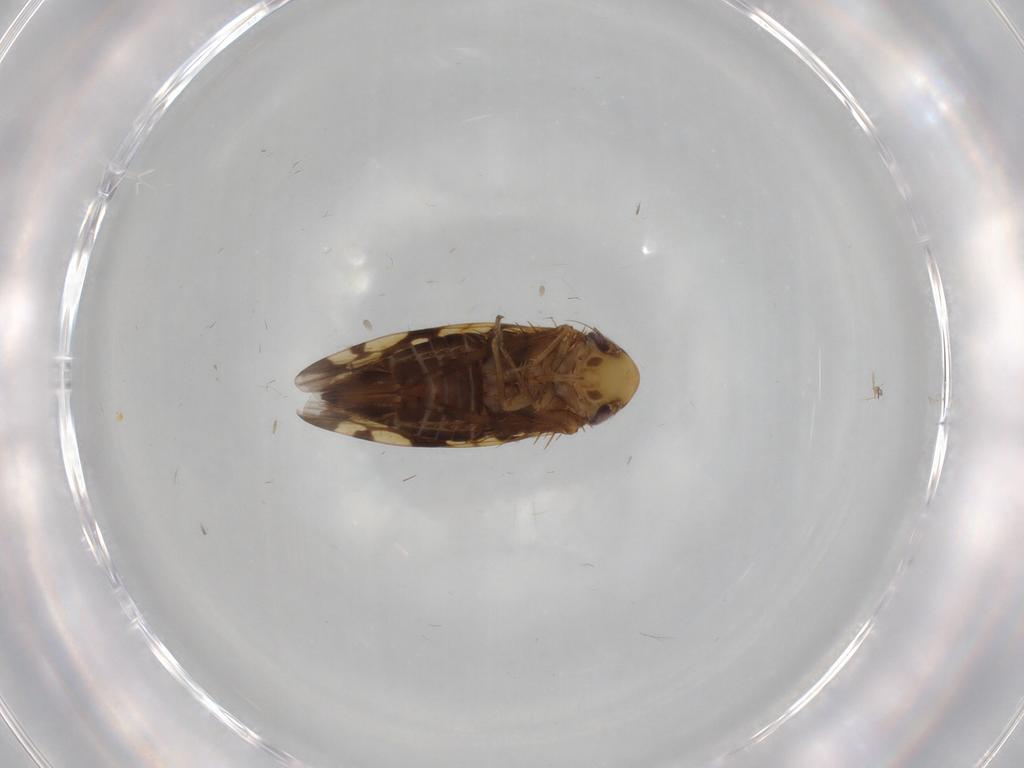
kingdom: Animalia
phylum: Arthropoda
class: Insecta
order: Hemiptera
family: Cicadellidae
